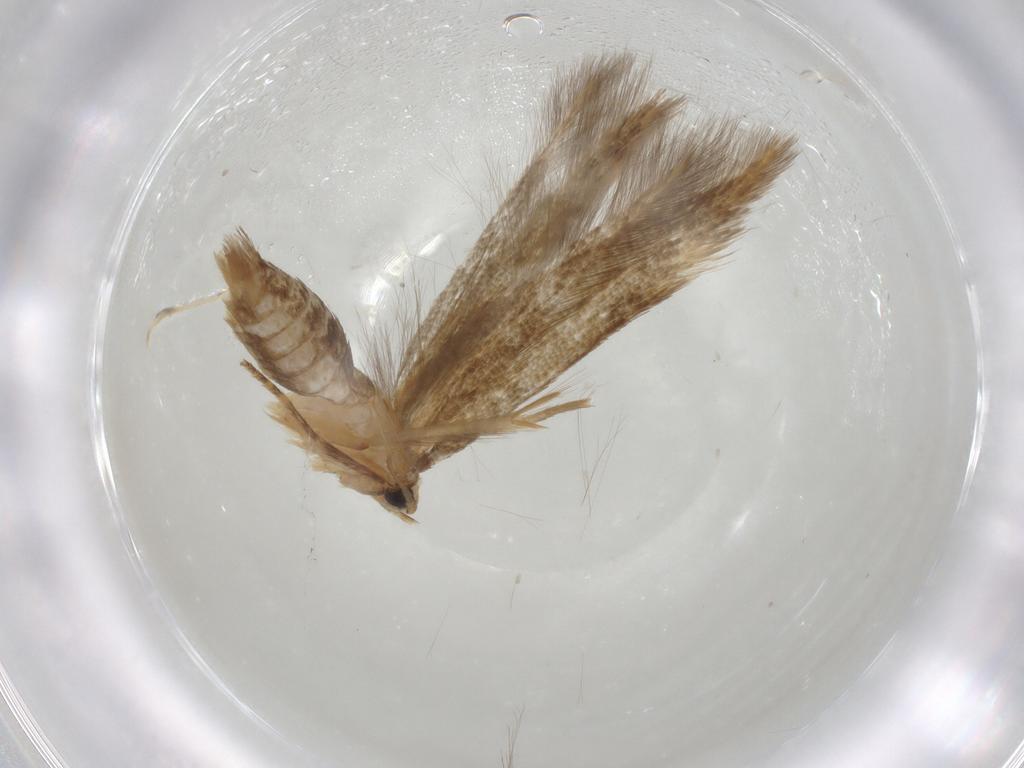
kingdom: Animalia
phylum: Arthropoda
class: Insecta
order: Lepidoptera
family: Tineidae
